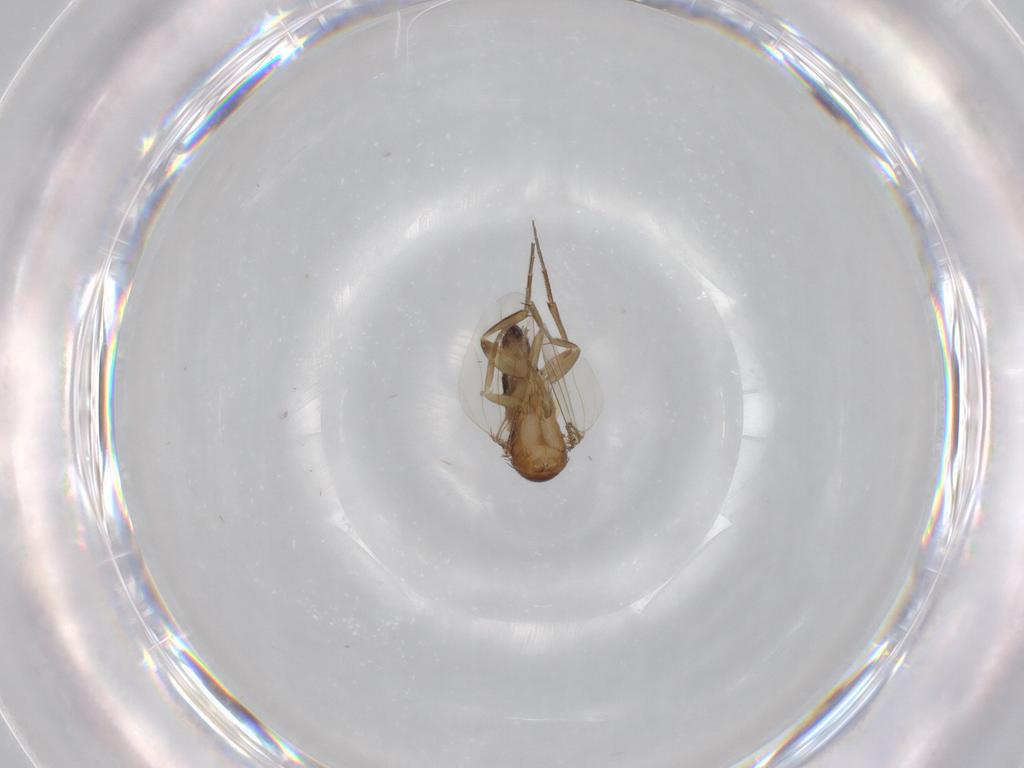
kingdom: Animalia
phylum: Arthropoda
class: Insecta
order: Diptera
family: Phoridae
